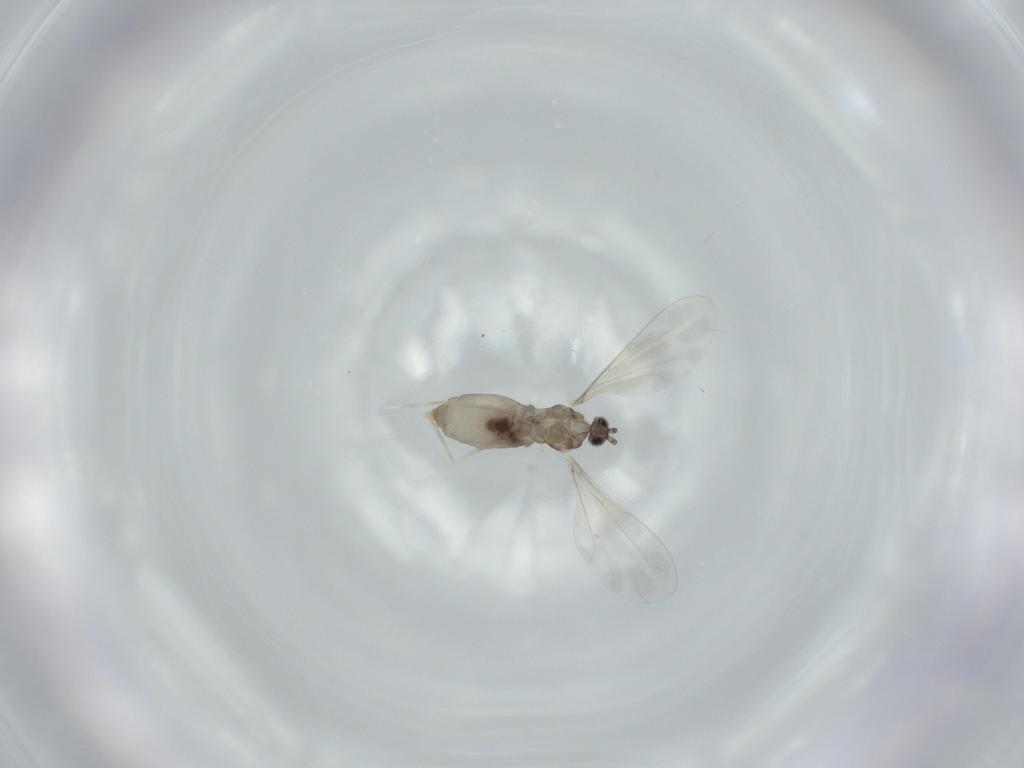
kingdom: Animalia
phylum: Arthropoda
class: Insecta
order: Diptera
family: Phoridae
